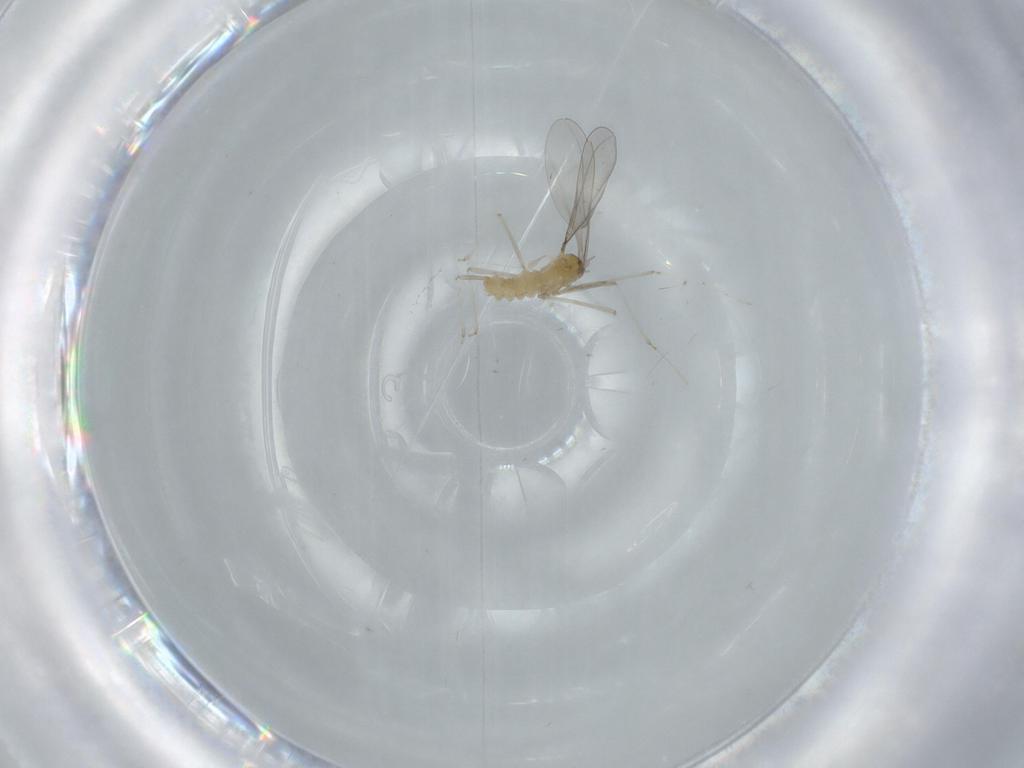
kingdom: Animalia
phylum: Arthropoda
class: Insecta
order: Diptera
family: Cecidomyiidae
